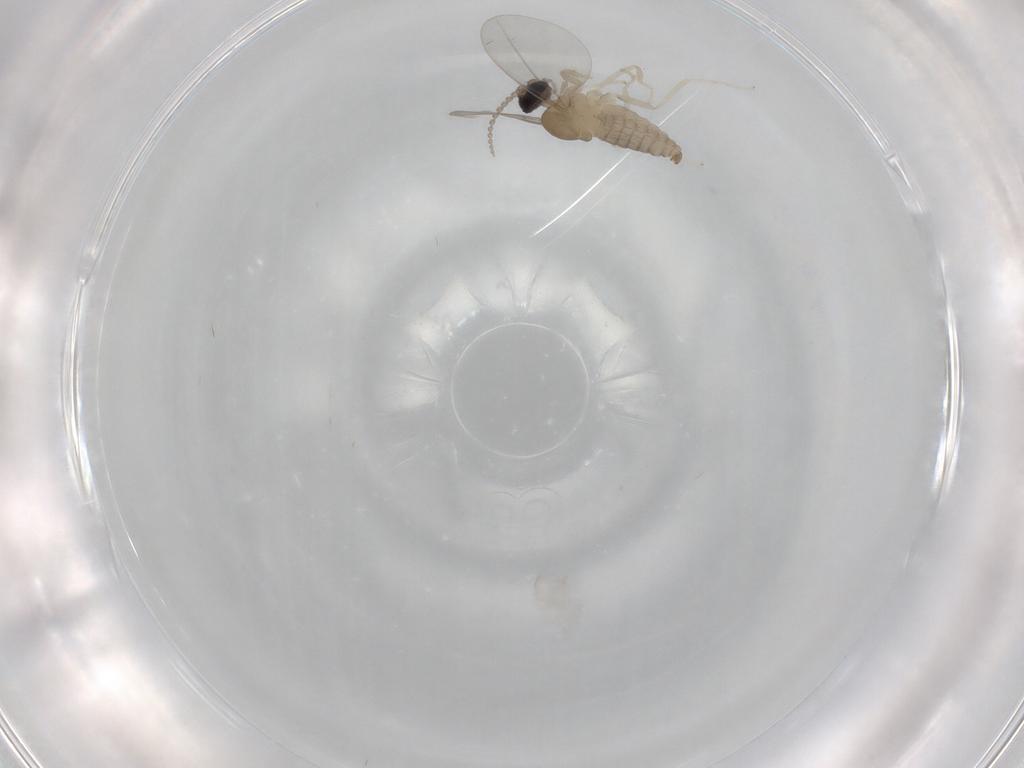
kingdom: Animalia
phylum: Arthropoda
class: Insecta
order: Diptera
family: Cecidomyiidae
